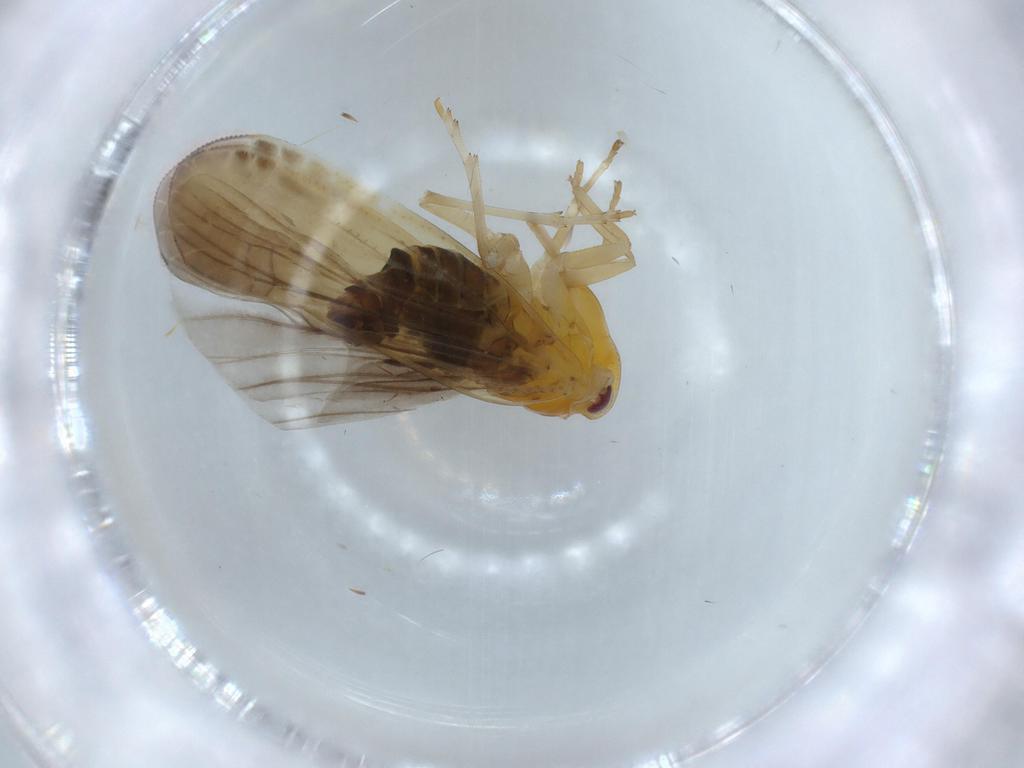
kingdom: Animalia
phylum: Arthropoda
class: Insecta
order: Hemiptera
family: Derbidae
